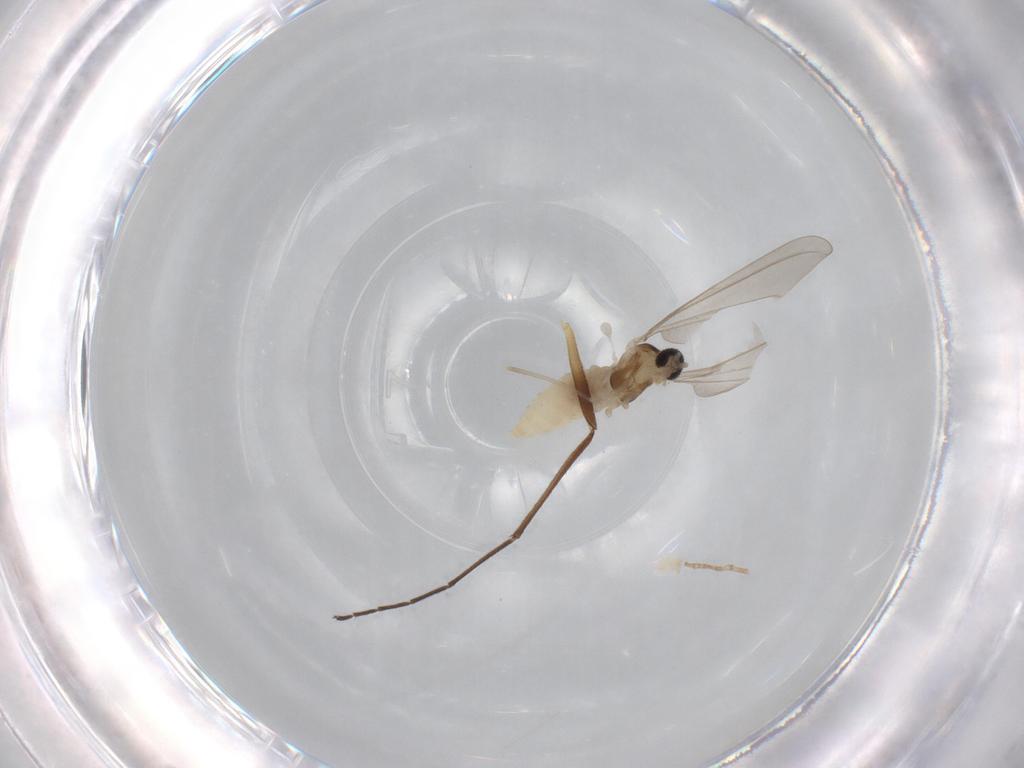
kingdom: Animalia
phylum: Arthropoda
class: Insecta
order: Diptera
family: Cecidomyiidae
